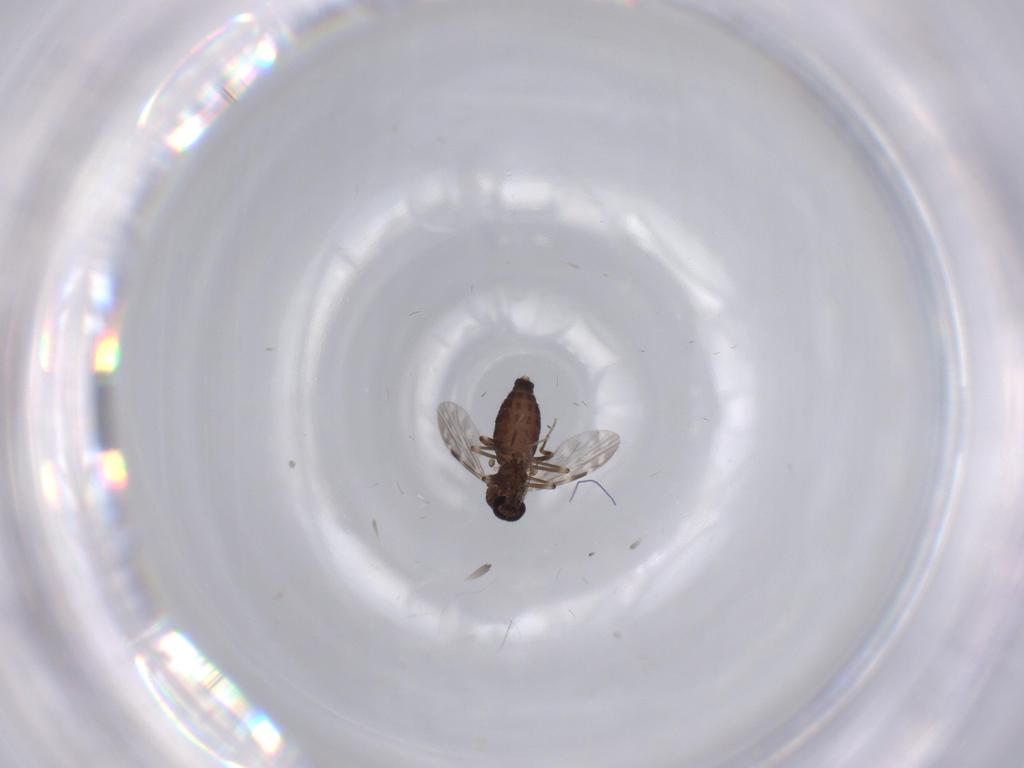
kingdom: Animalia
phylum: Arthropoda
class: Insecta
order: Diptera
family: Ceratopogonidae
